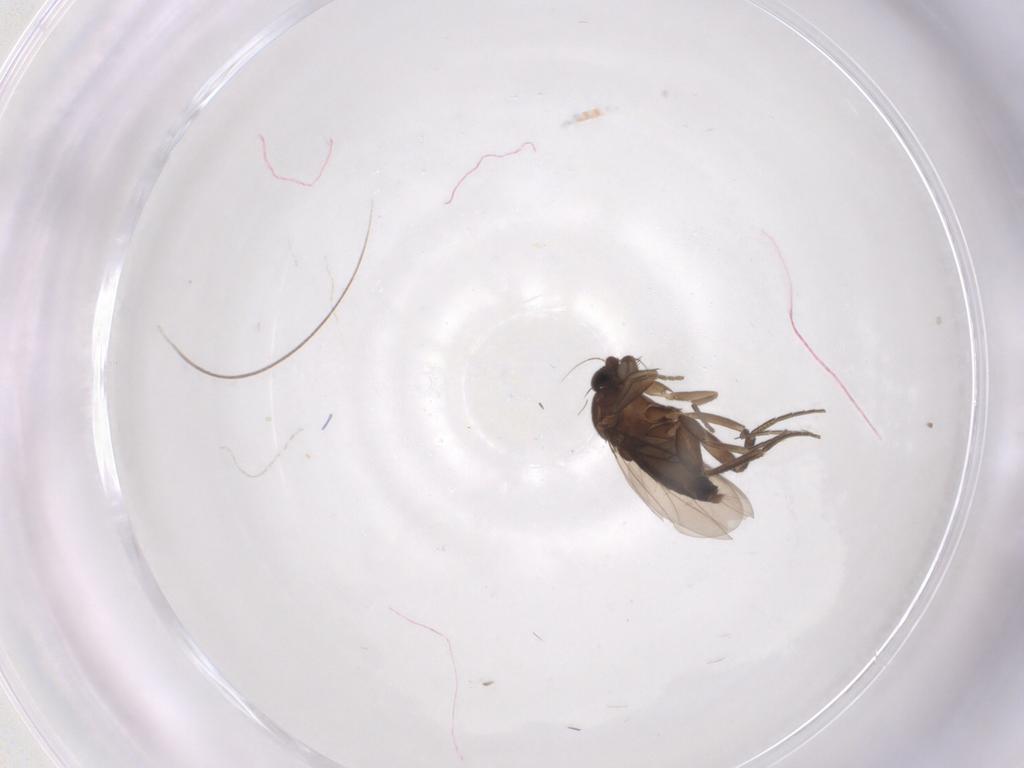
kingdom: Animalia
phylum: Arthropoda
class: Insecta
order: Diptera
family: Phoridae
